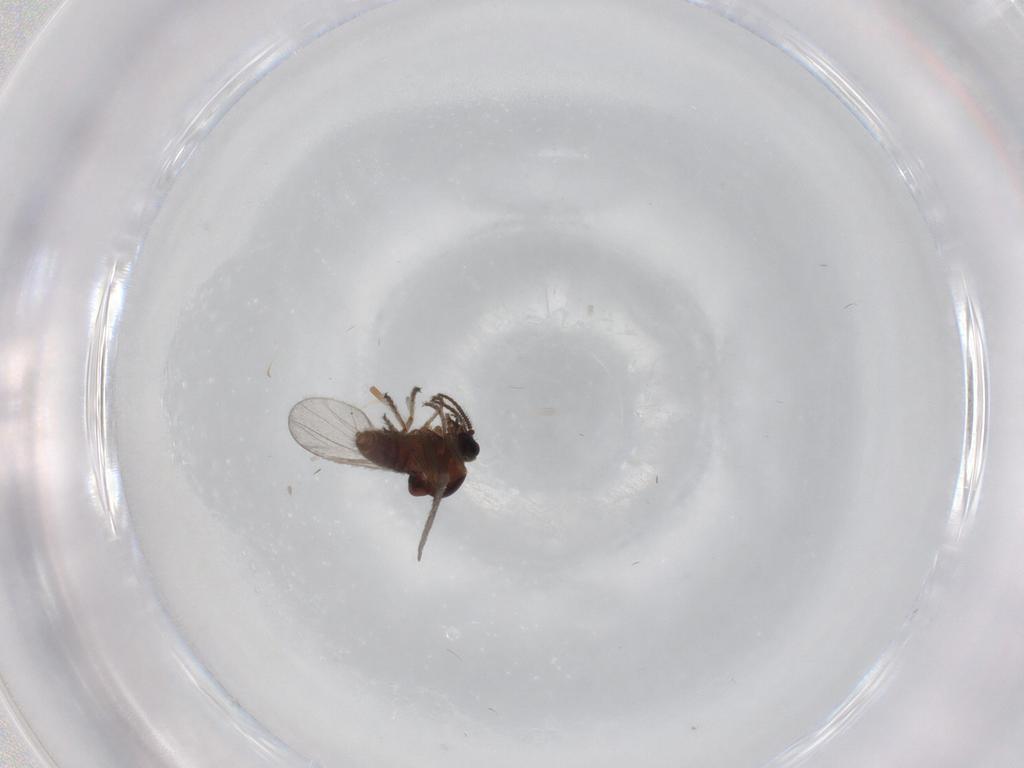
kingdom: Animalia
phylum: Arthropoda
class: Insecta
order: Diptera
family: Ceratopogonidae
